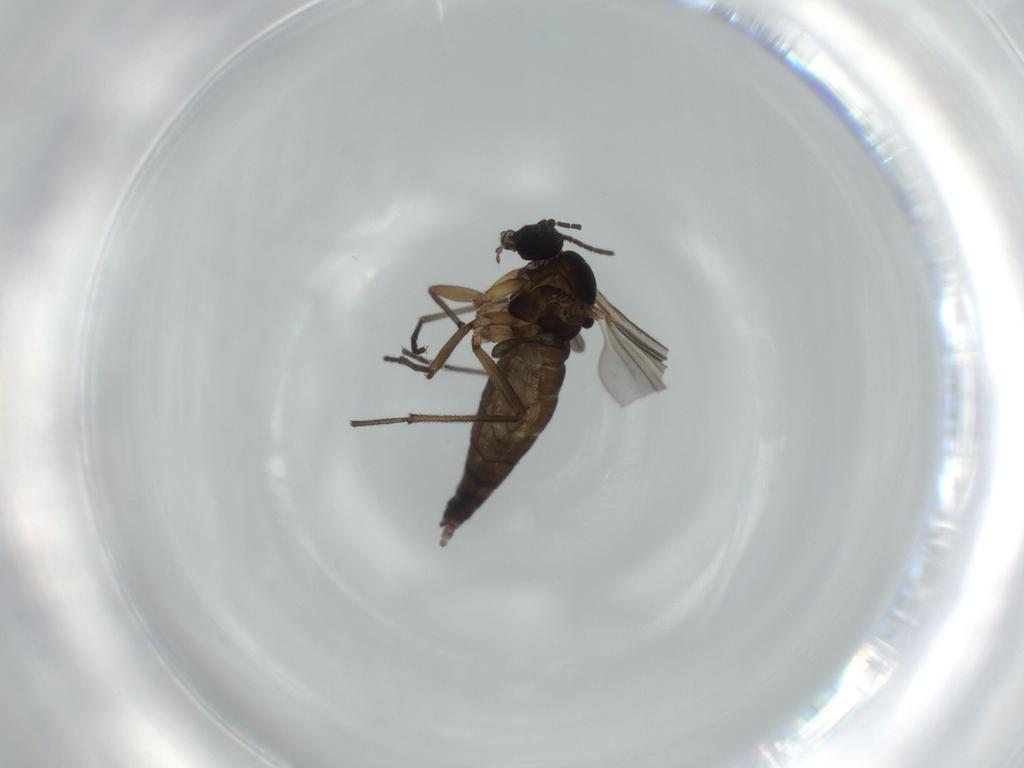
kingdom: Animalia
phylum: Arthropoda
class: Insecta
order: Diptera
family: Sciaridae
